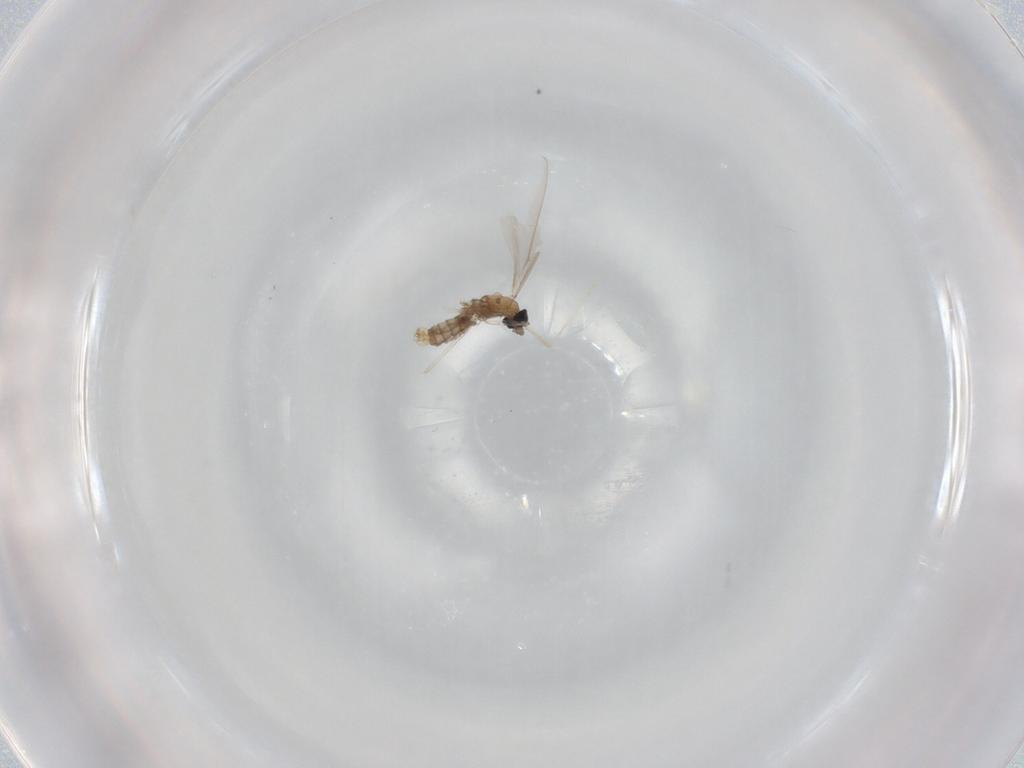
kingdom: Animalia
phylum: Arthropoda
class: Insecta
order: Diptera
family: Cecidomyiidae
